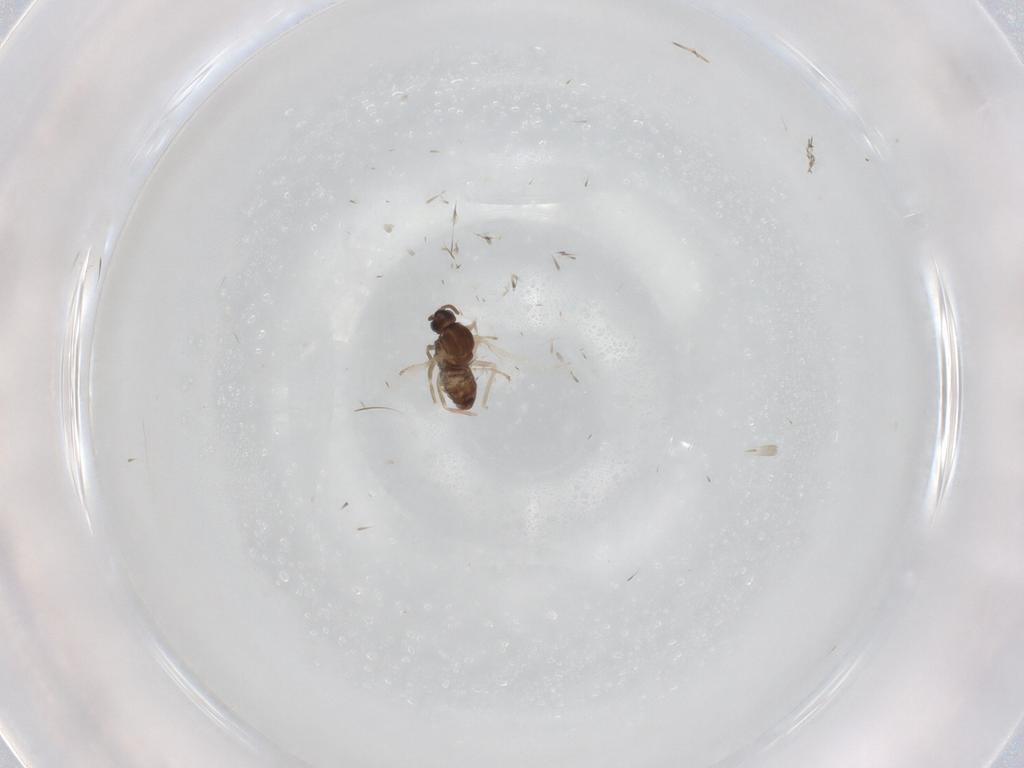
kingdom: Animalia
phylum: Arthropoda
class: Insecta
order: Diptera
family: Cecidomyiidae
